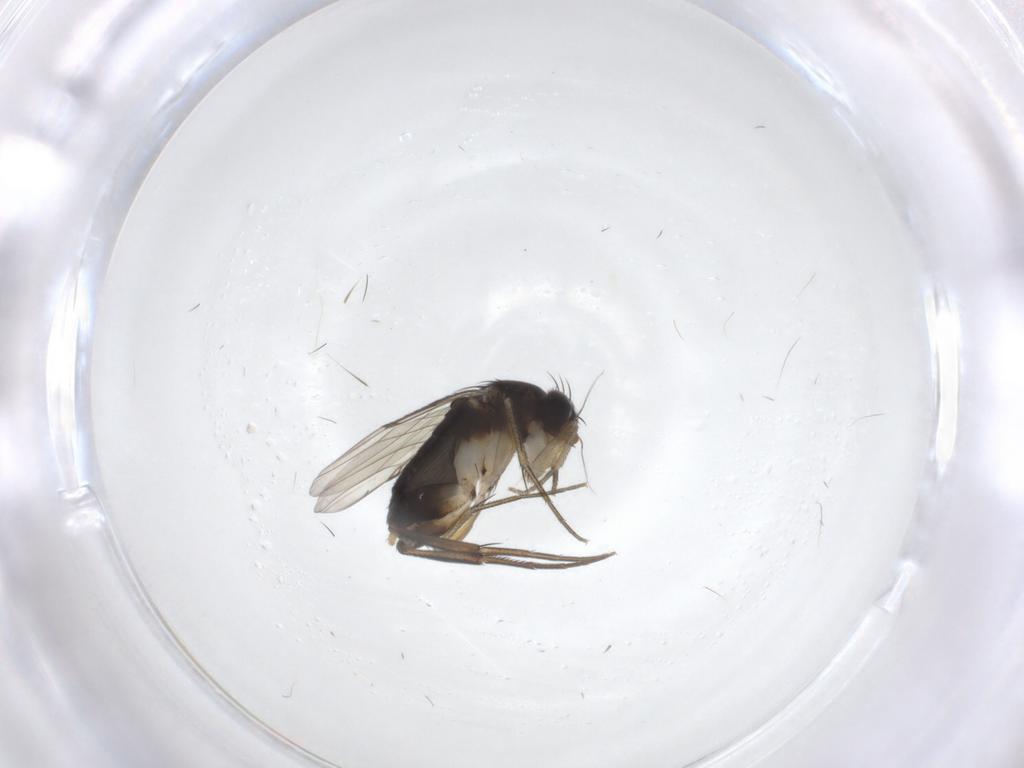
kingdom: Animalia
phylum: Arthropoda
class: Insecta
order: Diptera
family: Phoridae
